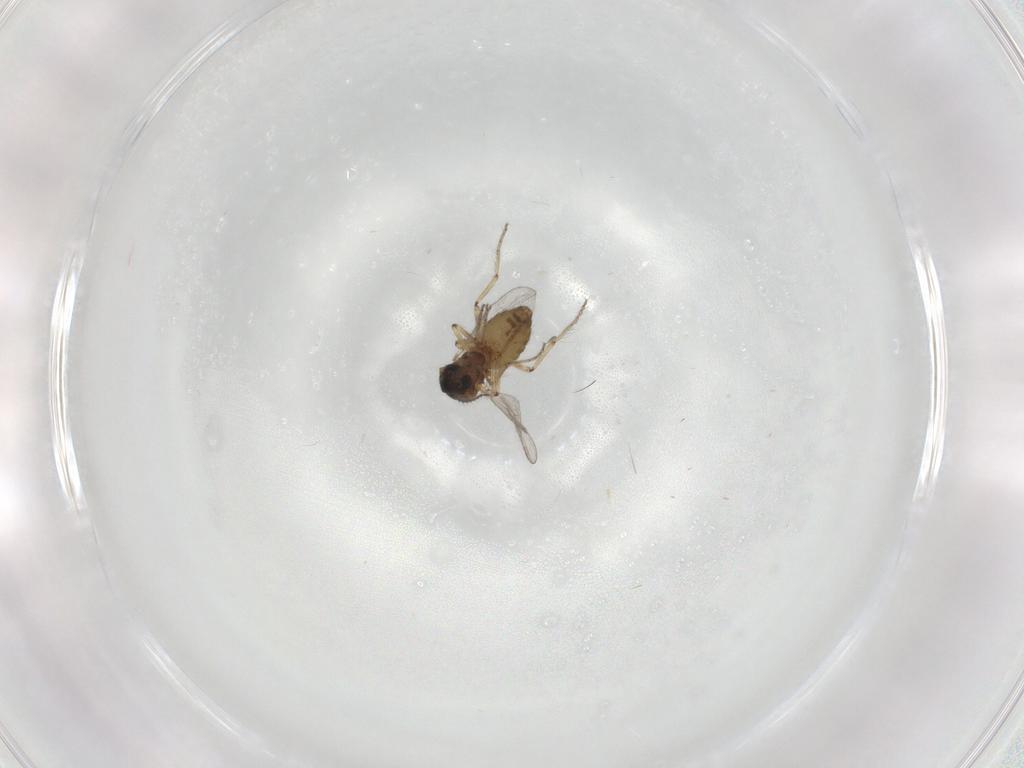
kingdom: Animalia
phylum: Arthropoda
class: Insecta
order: Diptera
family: Ceratopogonidae
